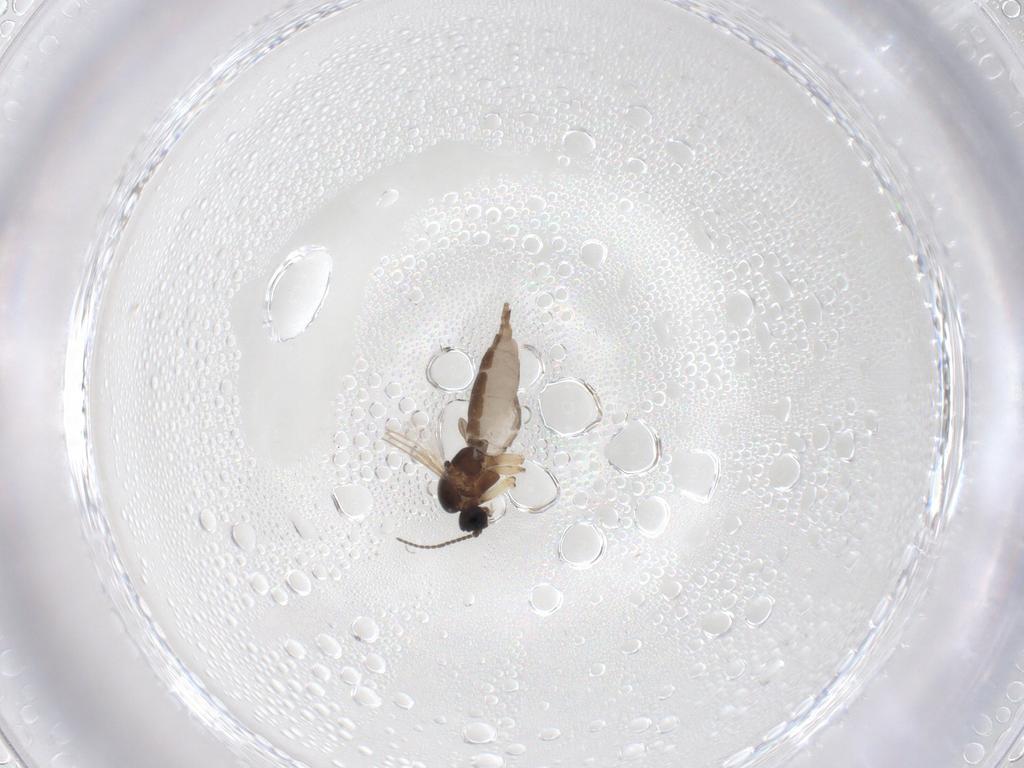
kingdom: Animalia
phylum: Arthropoda
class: Insecta
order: Diptera
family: Sciaridae
